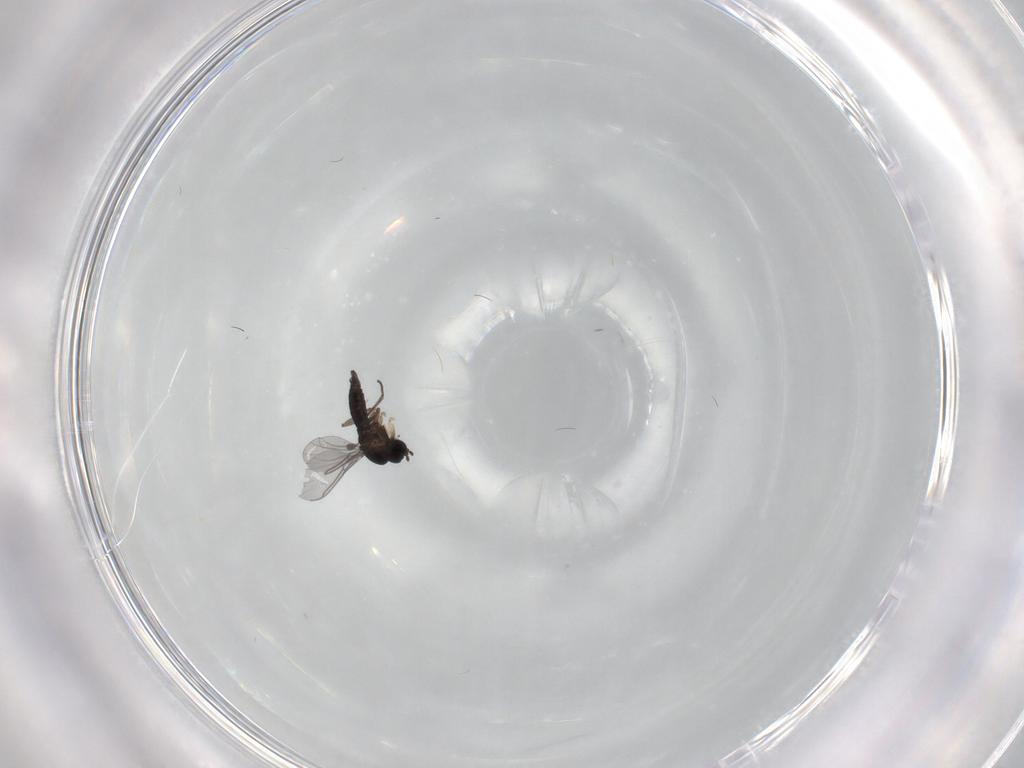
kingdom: Animalia
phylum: Arthropoda
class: Insecta
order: Diptera
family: Sciaridae
